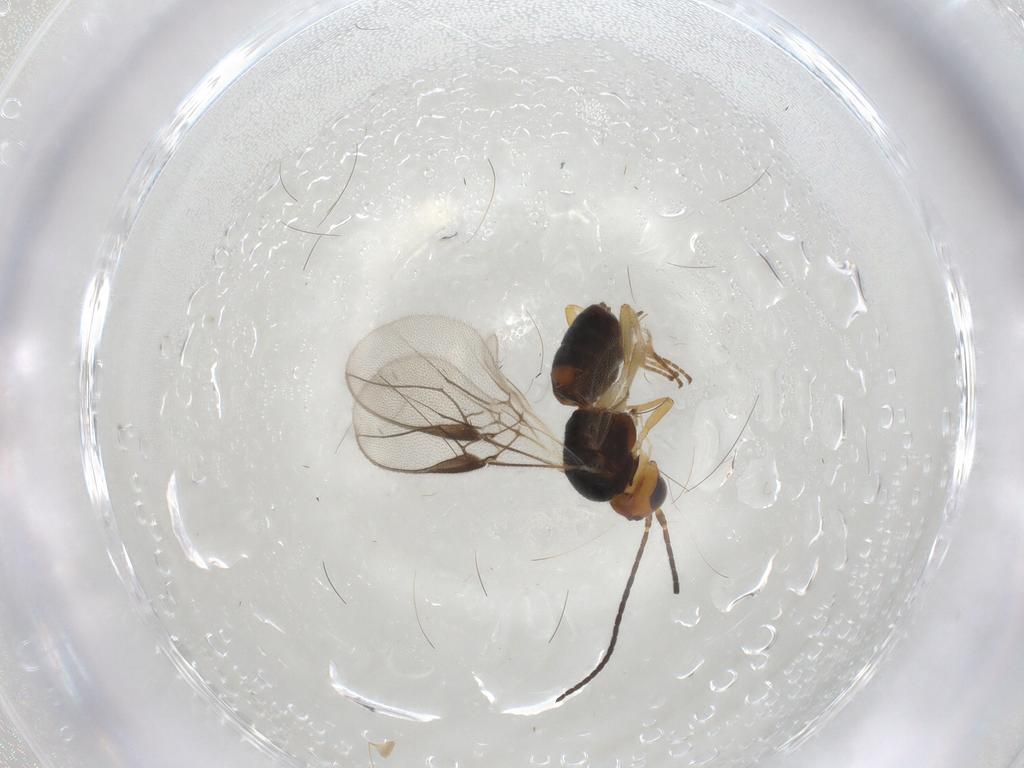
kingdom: Animalia
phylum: Arthropoda
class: Insecta
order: Hymenoptera
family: Braconidae
